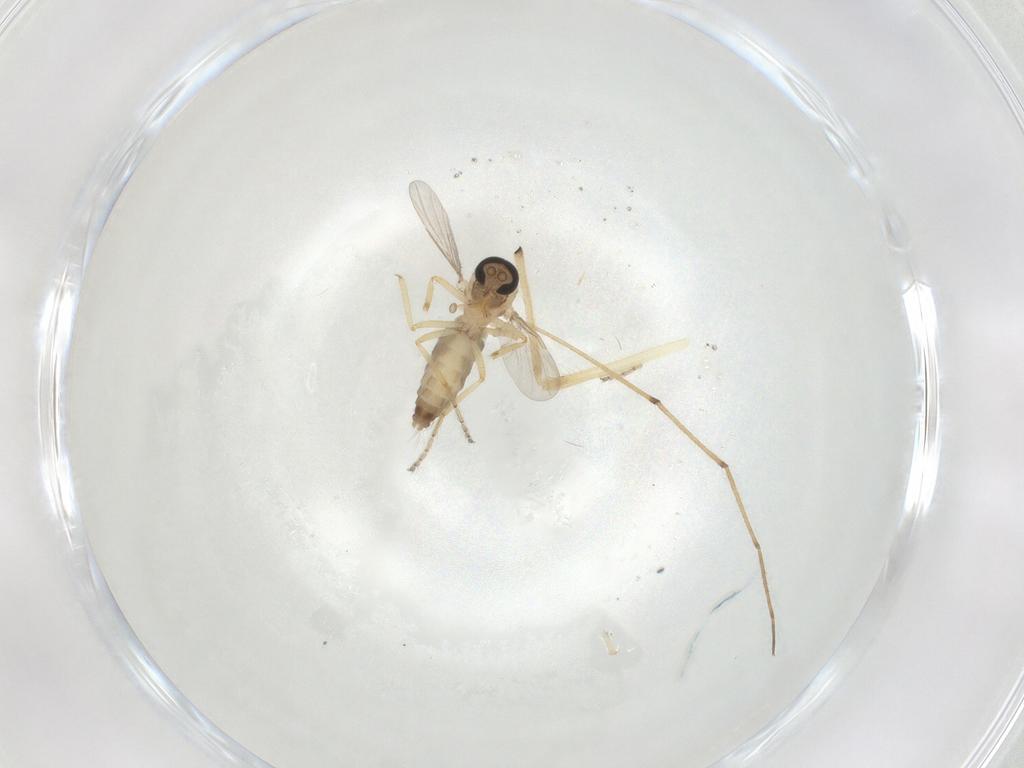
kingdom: Animalia
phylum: Arthropoda
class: Insecta
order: Diptera
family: Ceratopogonidae
